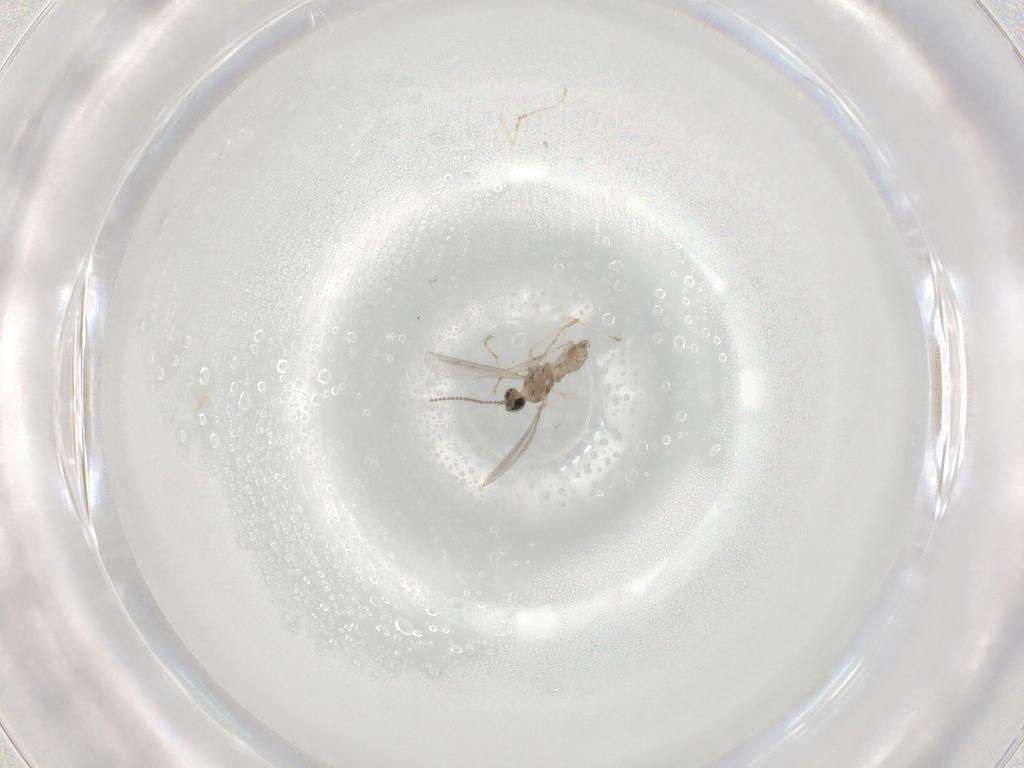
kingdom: Animalia
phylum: Arthropoda
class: Insecta
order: Diptera
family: Cecidomyiidae
